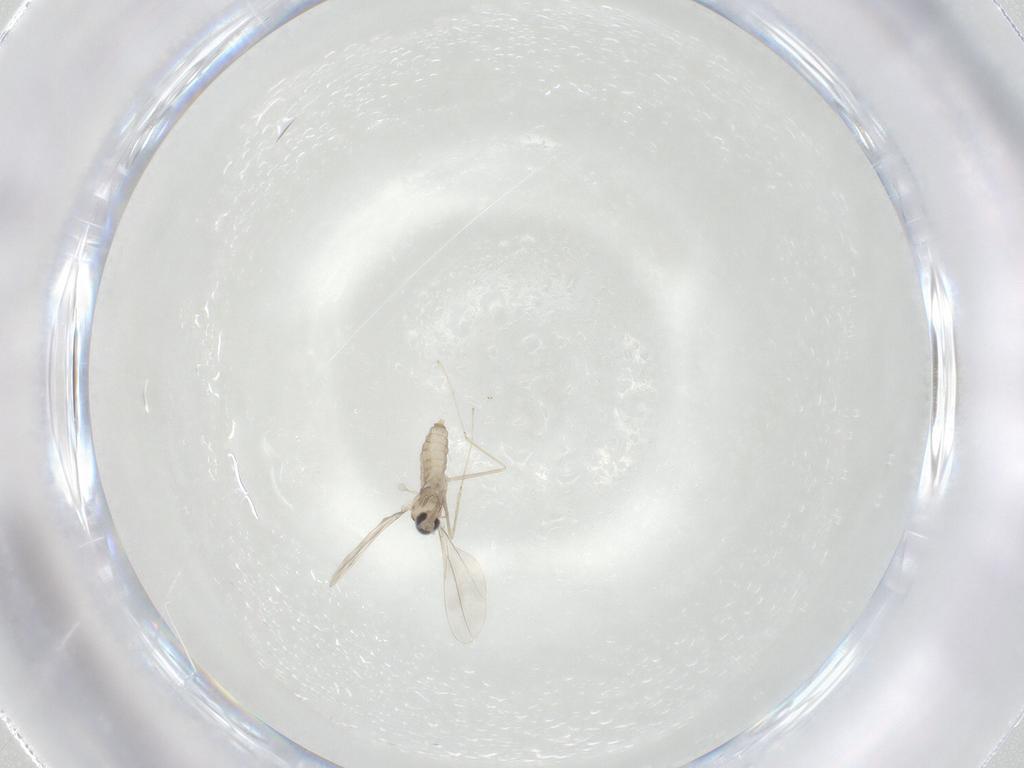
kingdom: Animalia
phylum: Arthropoda
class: Insecta
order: Diptera
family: Cecidomyiidae
